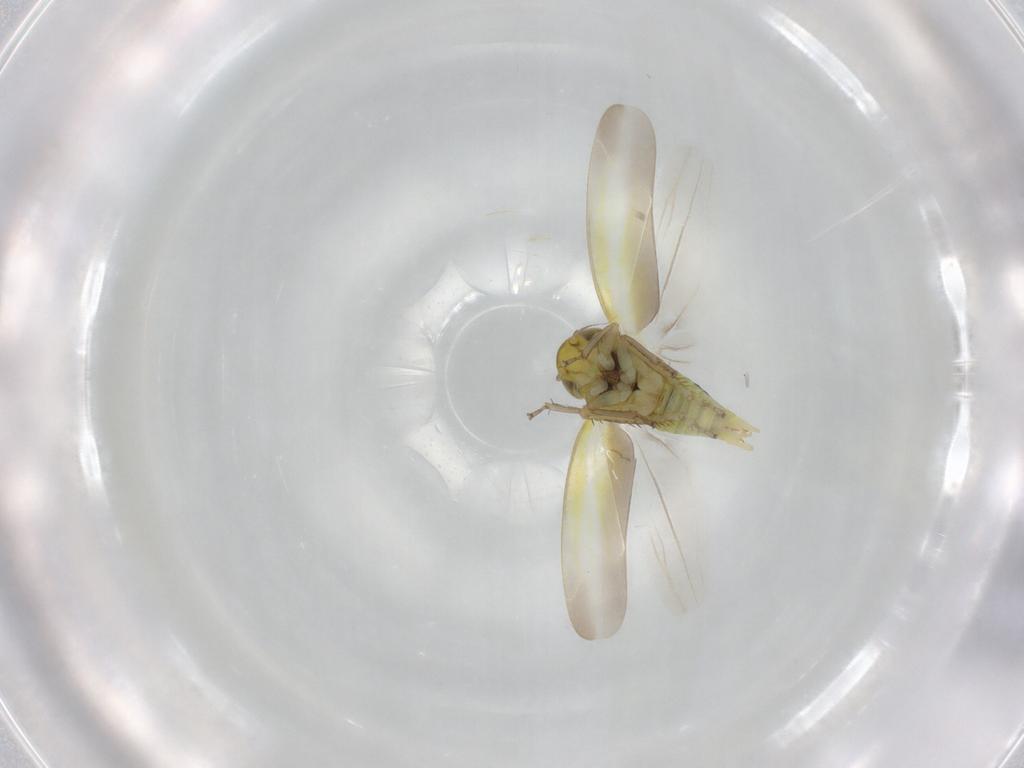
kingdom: Animalia
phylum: Arthropoda
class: Insecta
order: Hemiptera
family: Cicadellidae
